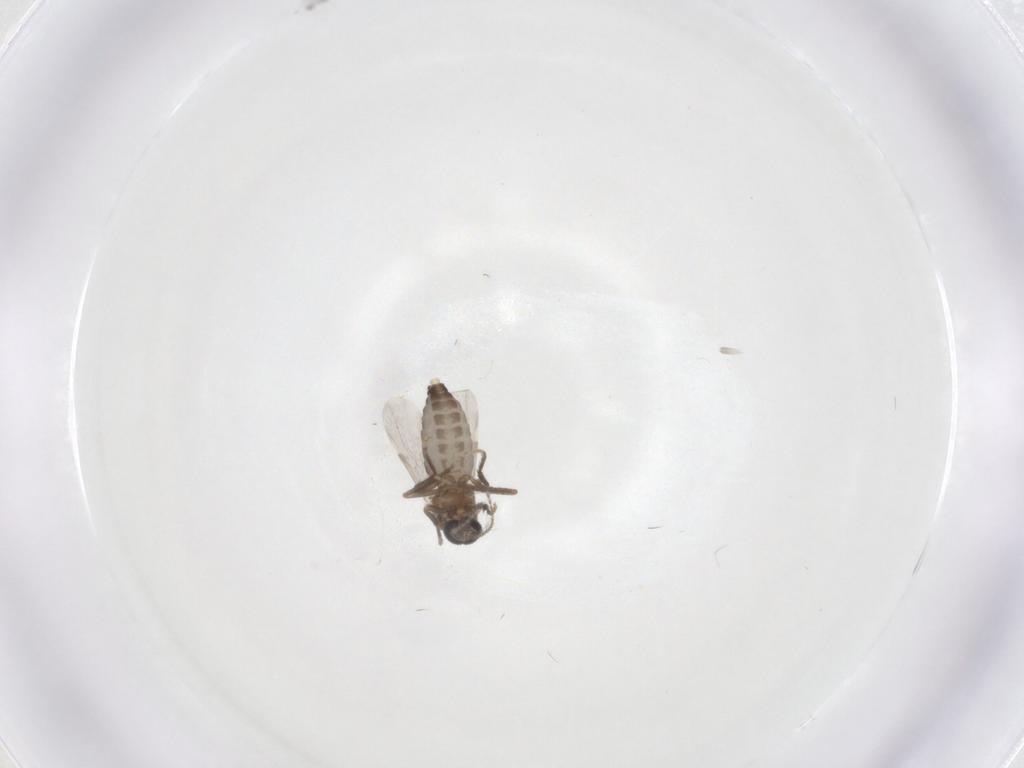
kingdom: Animalia
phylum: Arthropoda
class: Insecta
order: Diptera
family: Ceratopogonidae
